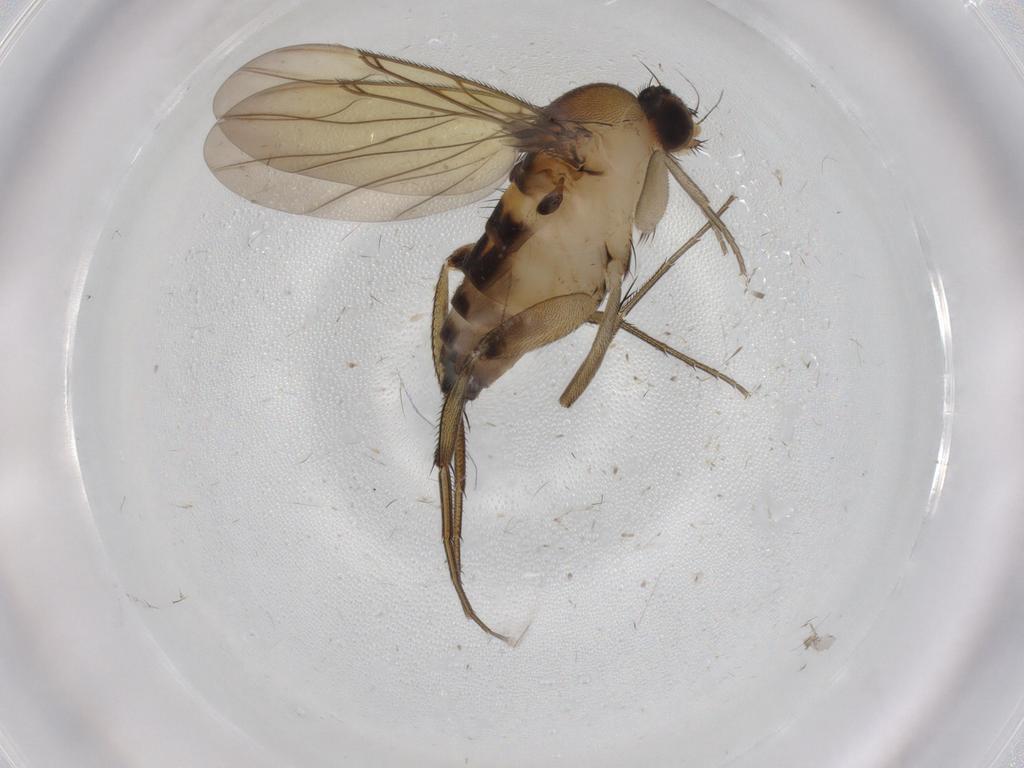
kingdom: Animalia
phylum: Arthropoda
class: Insecta
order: Diptera
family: Phoridae
